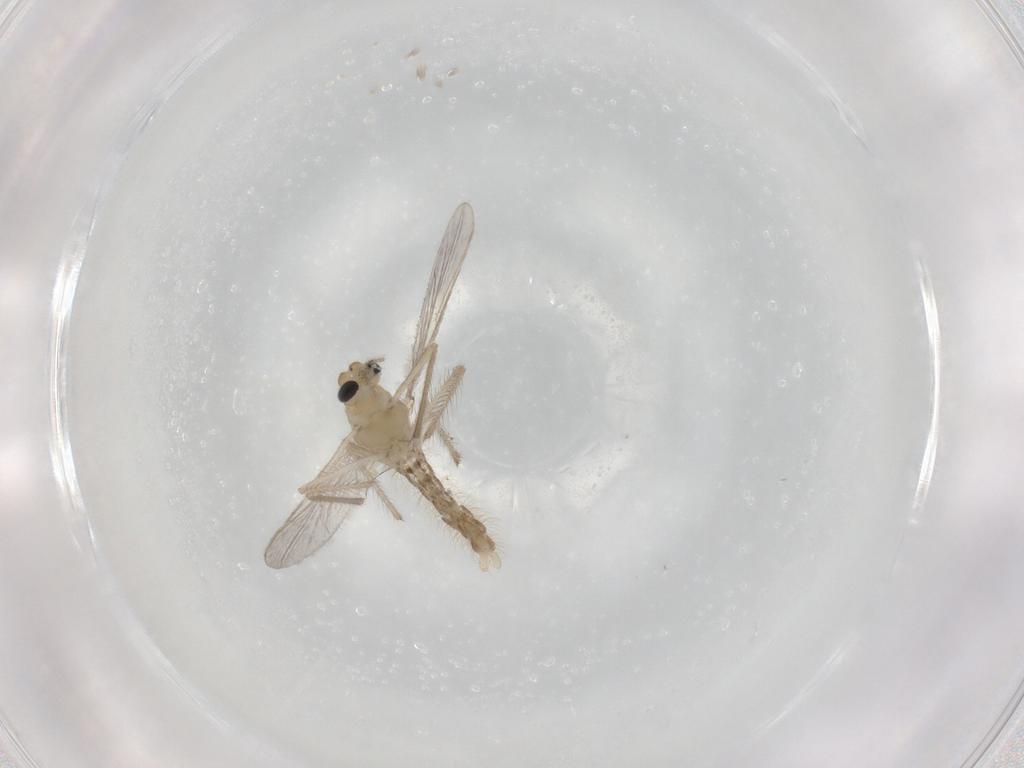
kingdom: Animalia
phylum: Arthropoda
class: Insecta
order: Diptera
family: Chironomidae
